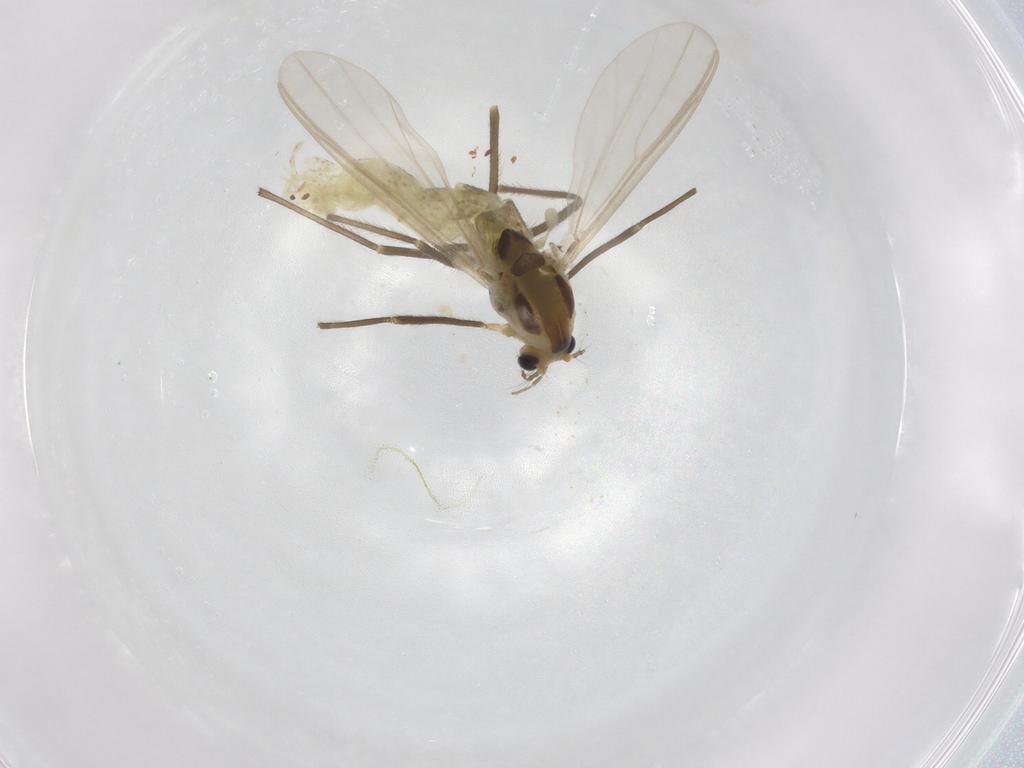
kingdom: Animalia
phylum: Arthropoda
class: Insecta
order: Diptera
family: Chironomidae
